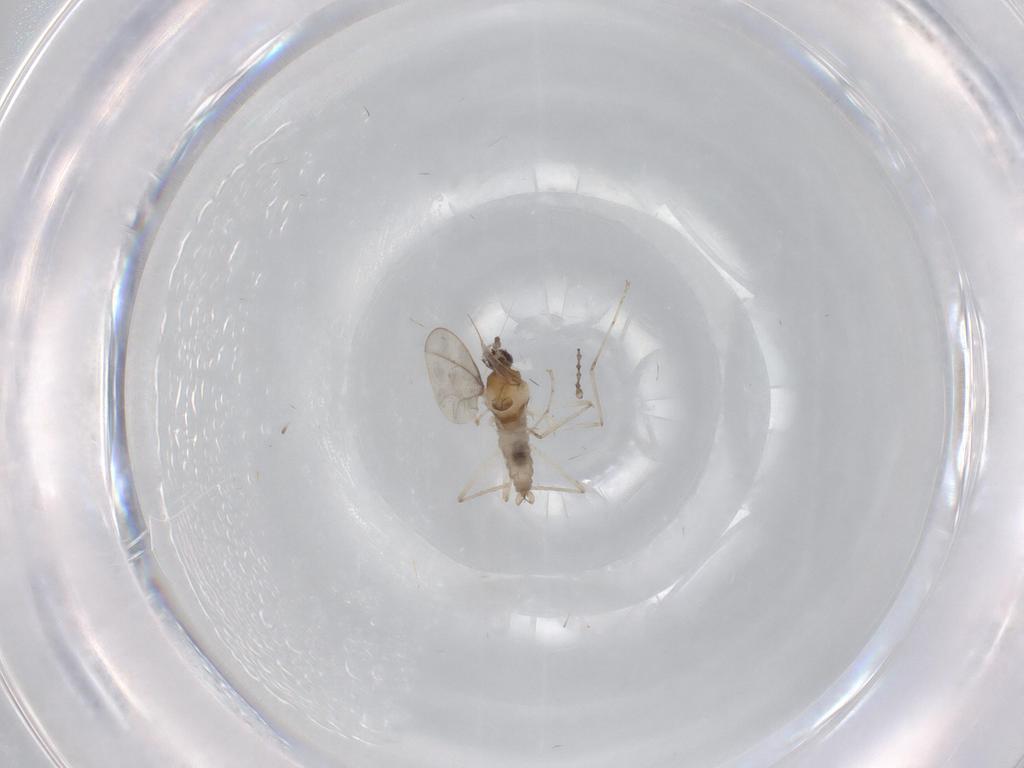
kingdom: Animalia
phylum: Arthropoda
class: Insecta
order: Diptera
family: Cecidomyiidae
